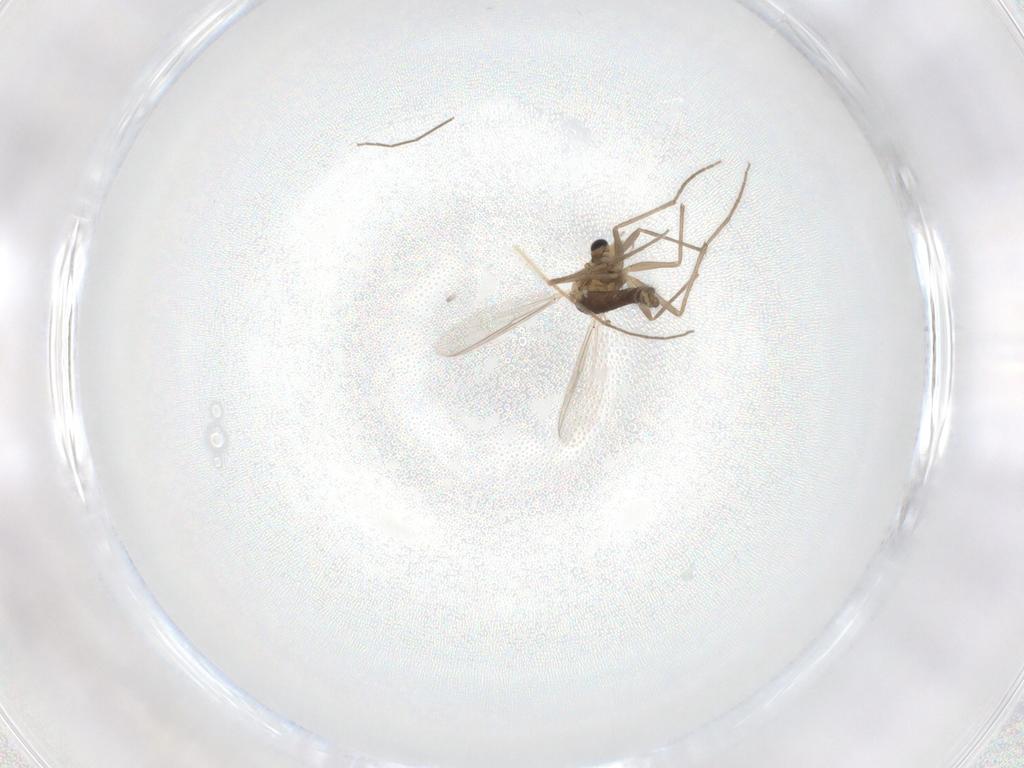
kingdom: Animalia
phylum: Arthropoda
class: Insecta
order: Diptera
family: Chironomidae
